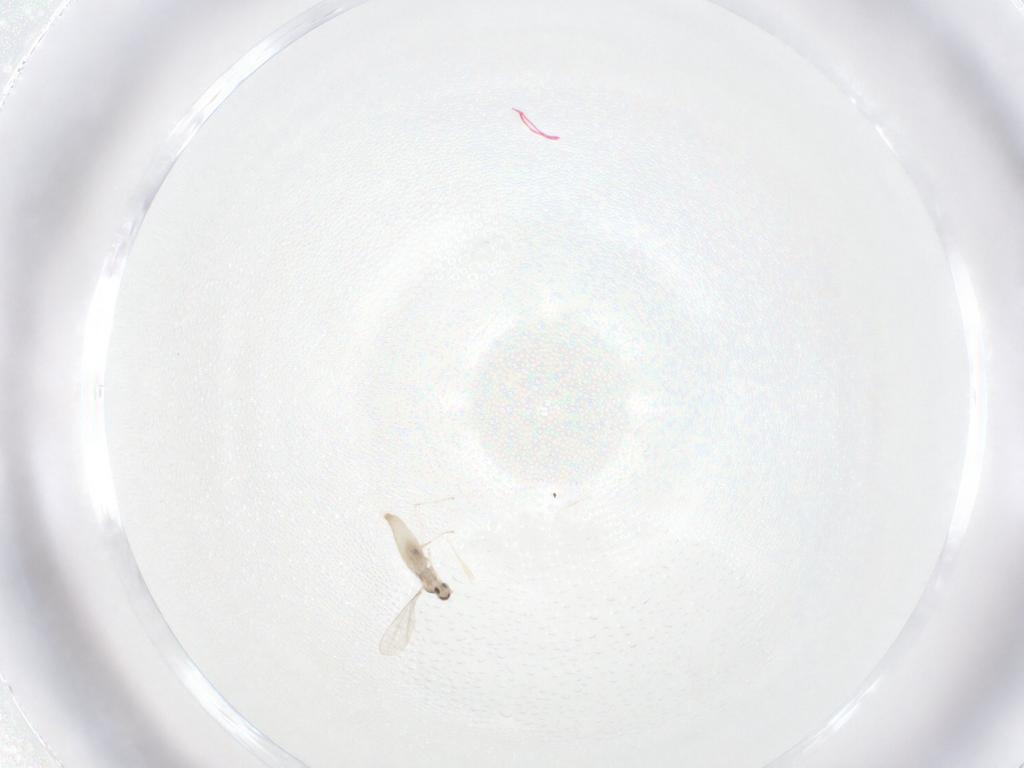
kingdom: Animalia
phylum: Arthropoda
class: Insecta
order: Diptera
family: Cecidomyiidae
